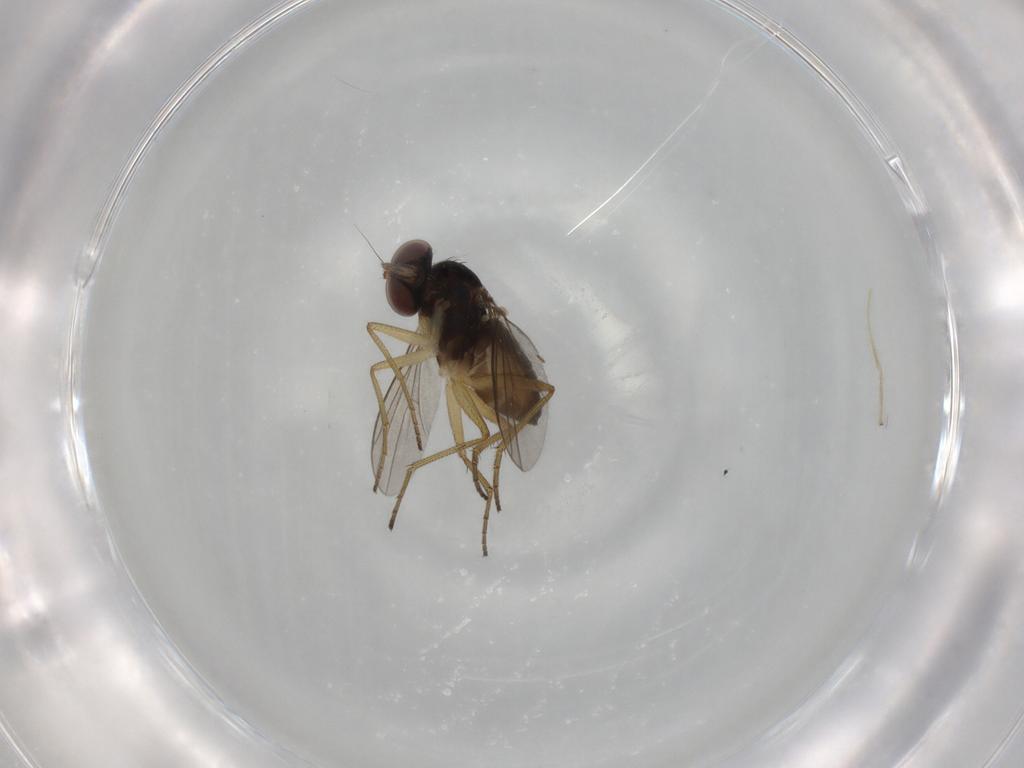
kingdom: Animalia
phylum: Arthropoda
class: Insecta
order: Diptera
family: Dolichopodidae
